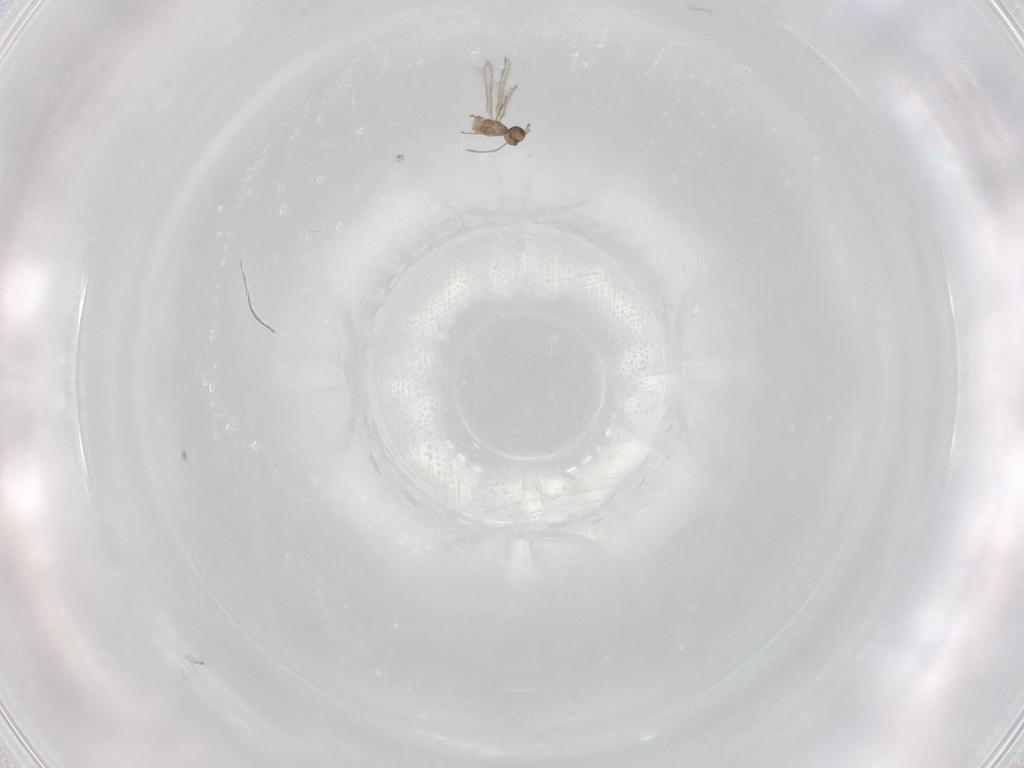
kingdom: Animalia
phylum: Arthropoda
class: Insecta
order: Hymenoptera
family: Mymaridae
